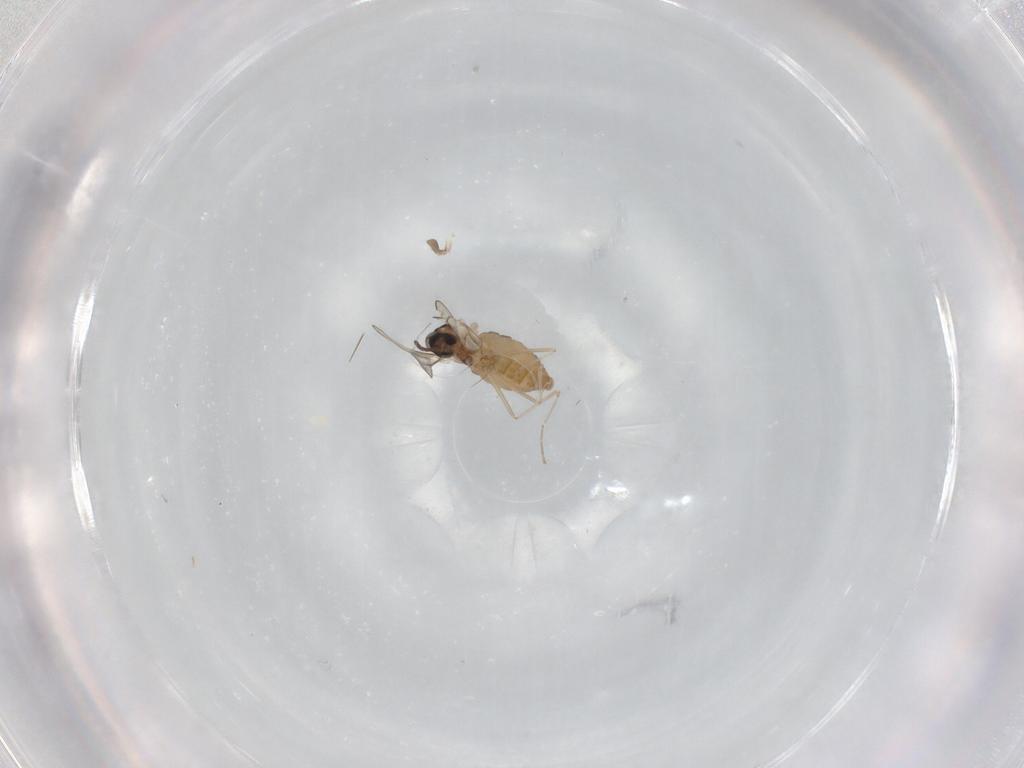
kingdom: Animalia
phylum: Arthropoda
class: Insecta
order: Diptera
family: Cecidomyiidae
